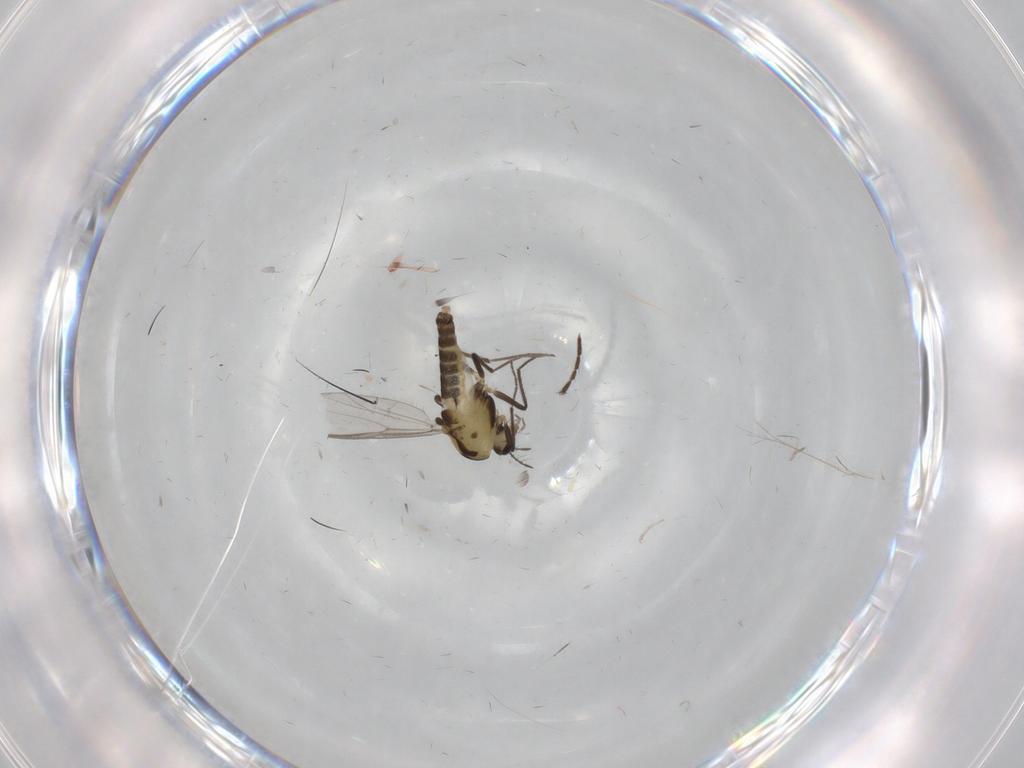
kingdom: Animalia
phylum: Arthropoda
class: Insecta
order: Diptera
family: Chironomidae
